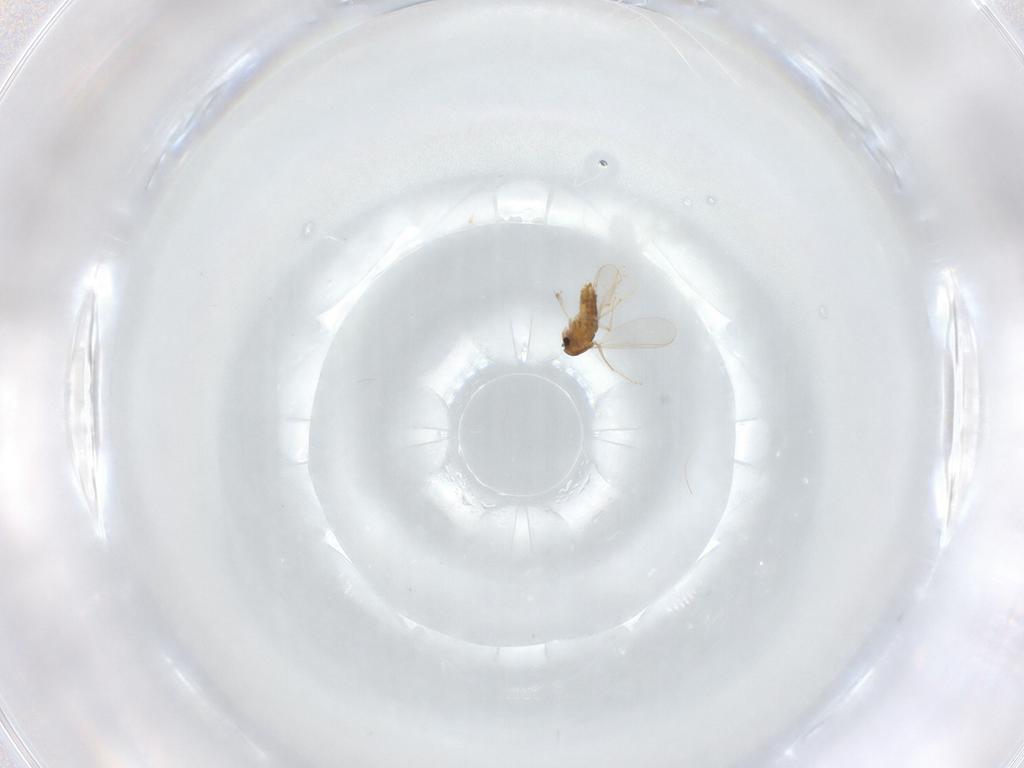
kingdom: Animalia
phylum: Arthropoda
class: Insecta
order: Diptera
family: Chironomidae
